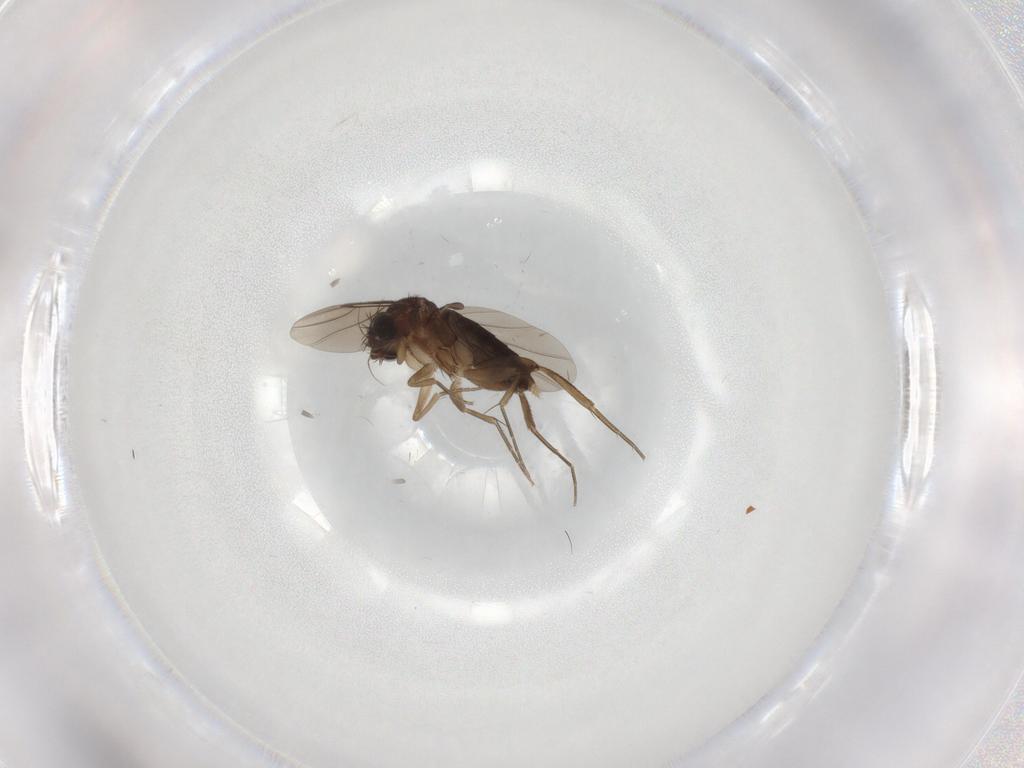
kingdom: Animalia
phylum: Arthropoda
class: Insecta
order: Diptera
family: Phoridae
